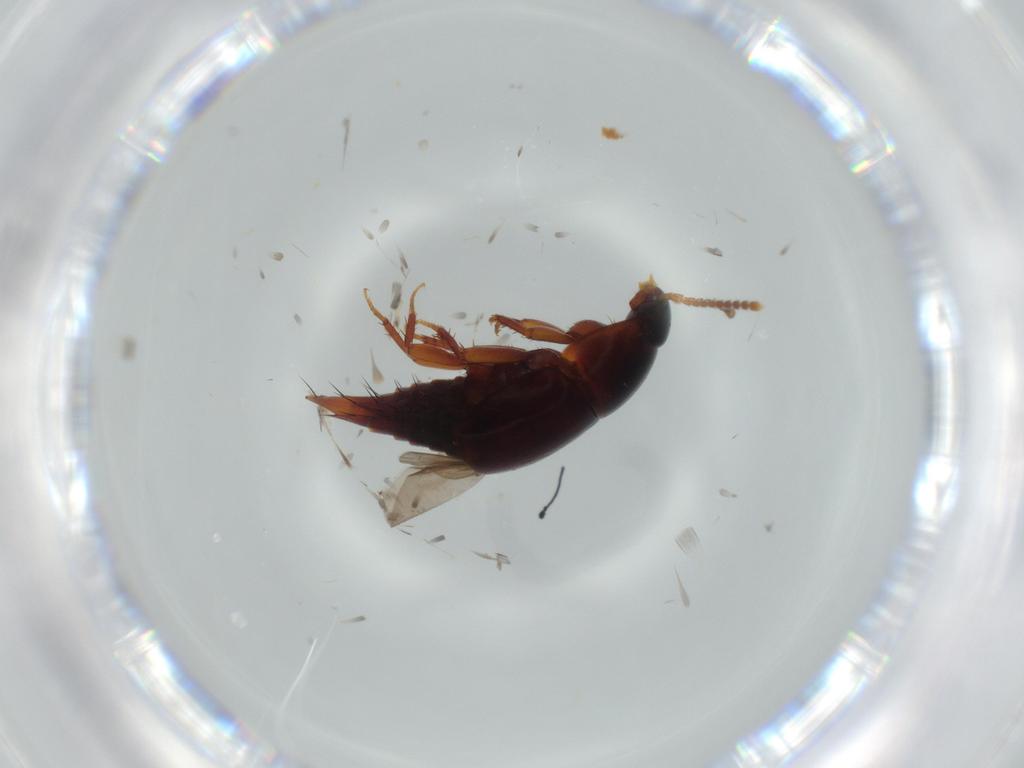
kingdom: Animalia
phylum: Arthropoda
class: Insecta
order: Coleoptera
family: Staphylinidae
